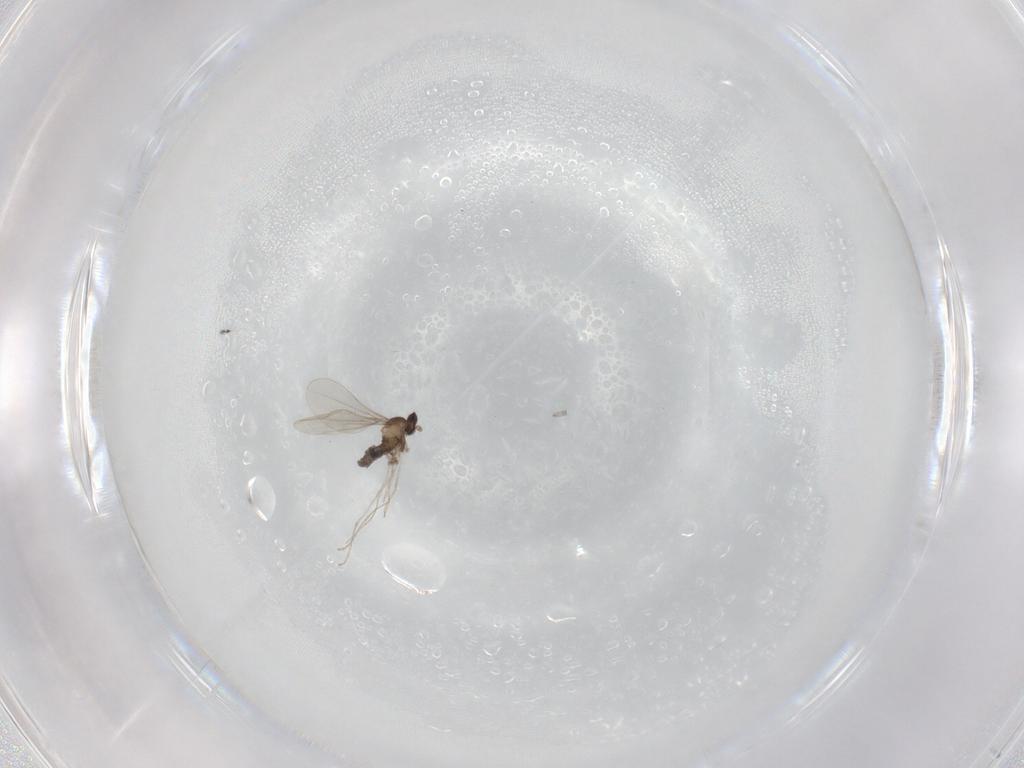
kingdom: Animalia
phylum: Arthropoda
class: Insecta
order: Diptera
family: Cecidomyiidae
